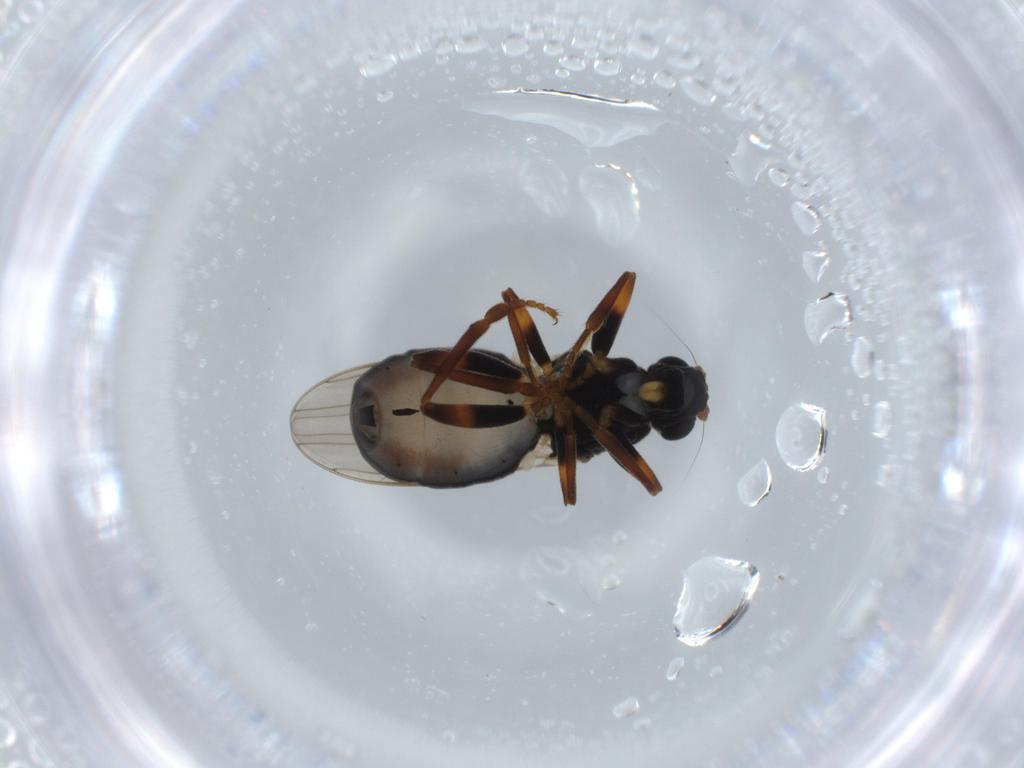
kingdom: Animalia
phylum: Arthropoda
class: Insecta
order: Diptera
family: Sphaeroceridae
